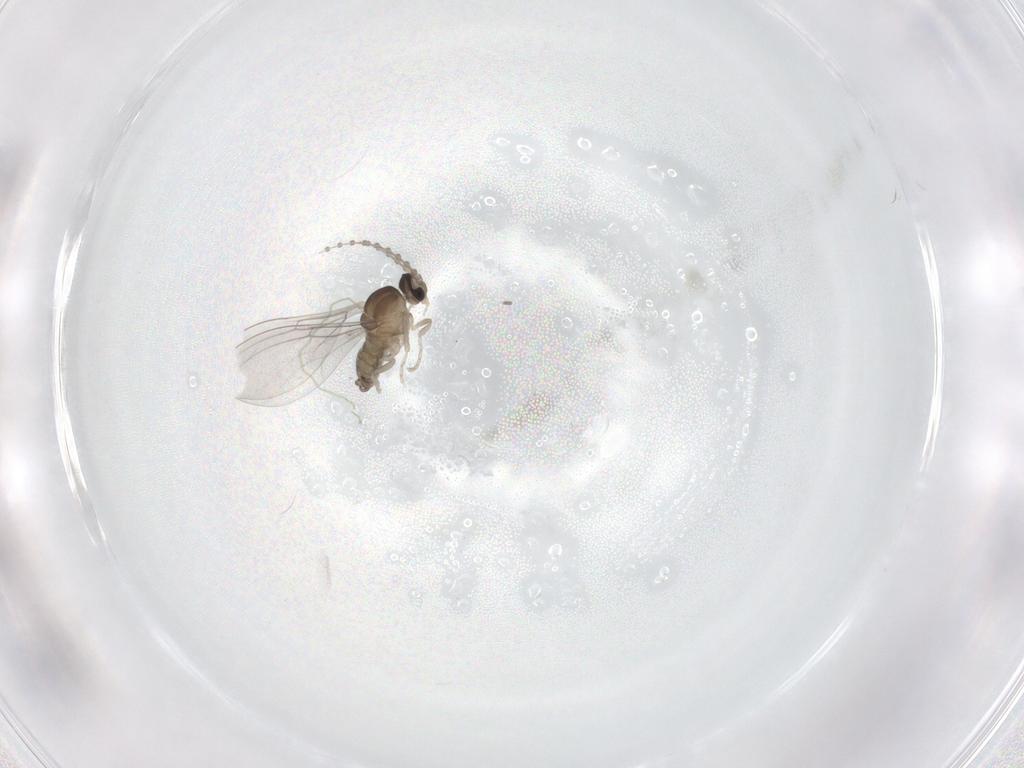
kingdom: Animalia
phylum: Arthropoda
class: Insecta
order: Diptera
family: Cecidomyiidae
